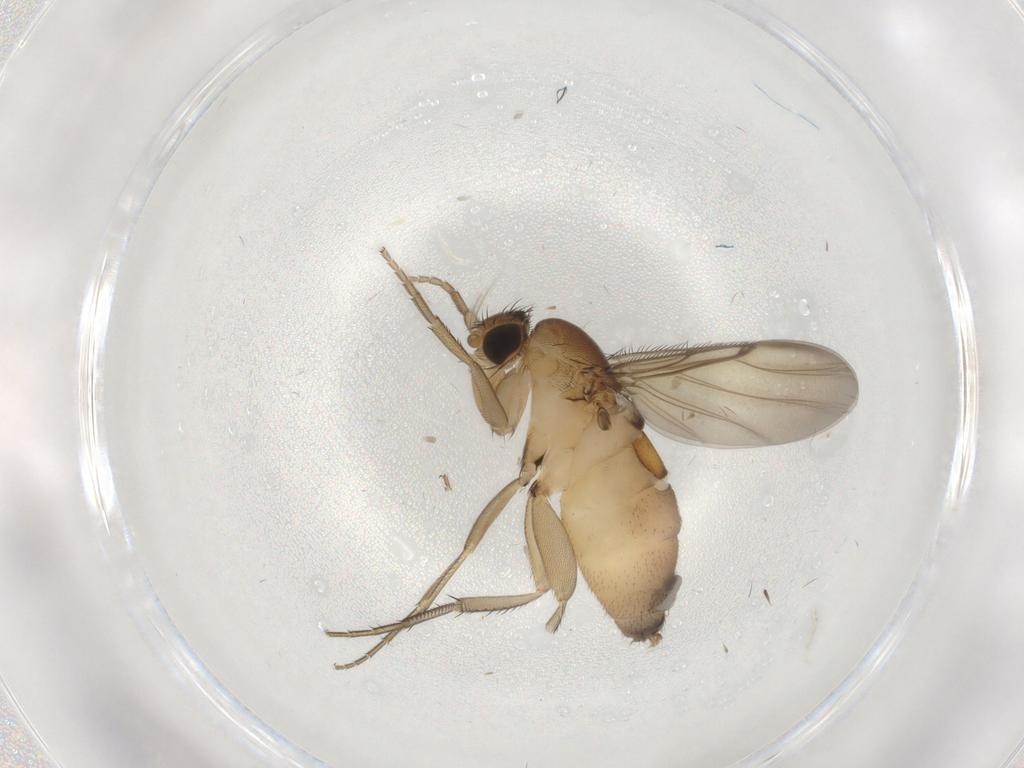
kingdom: Animalia
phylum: Arthropoda
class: Insecta
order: Diptera
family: Phoridae
